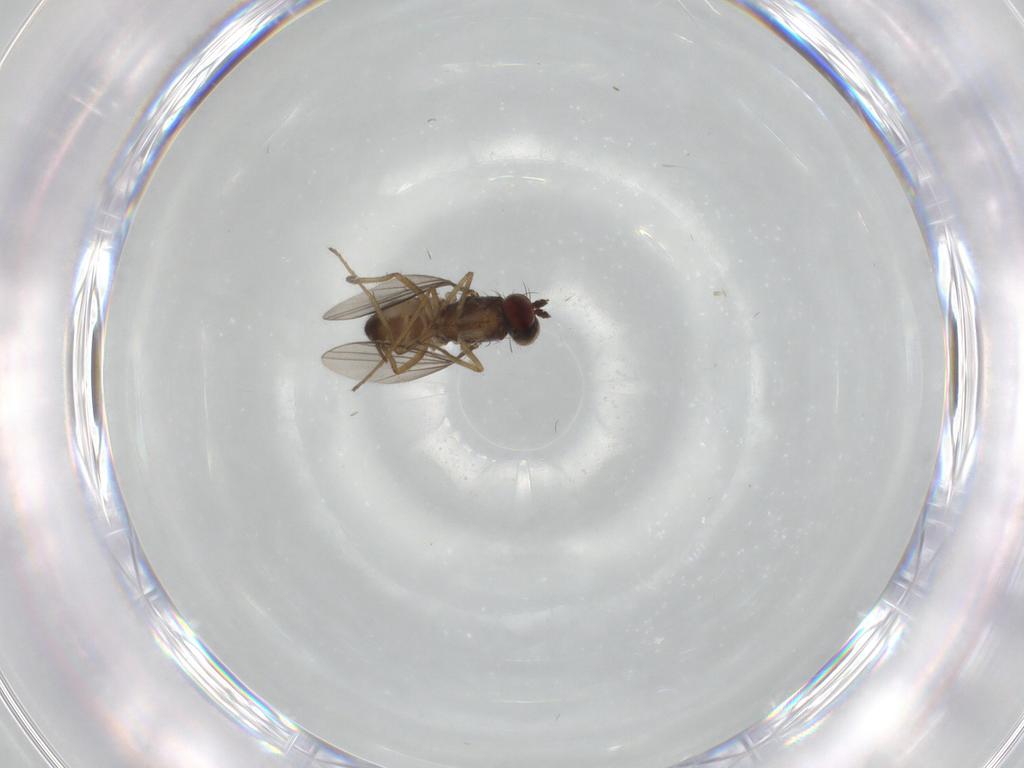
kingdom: Animalia
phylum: Arthropoda
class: Insecta
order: Diptera
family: Dolichopodidae
